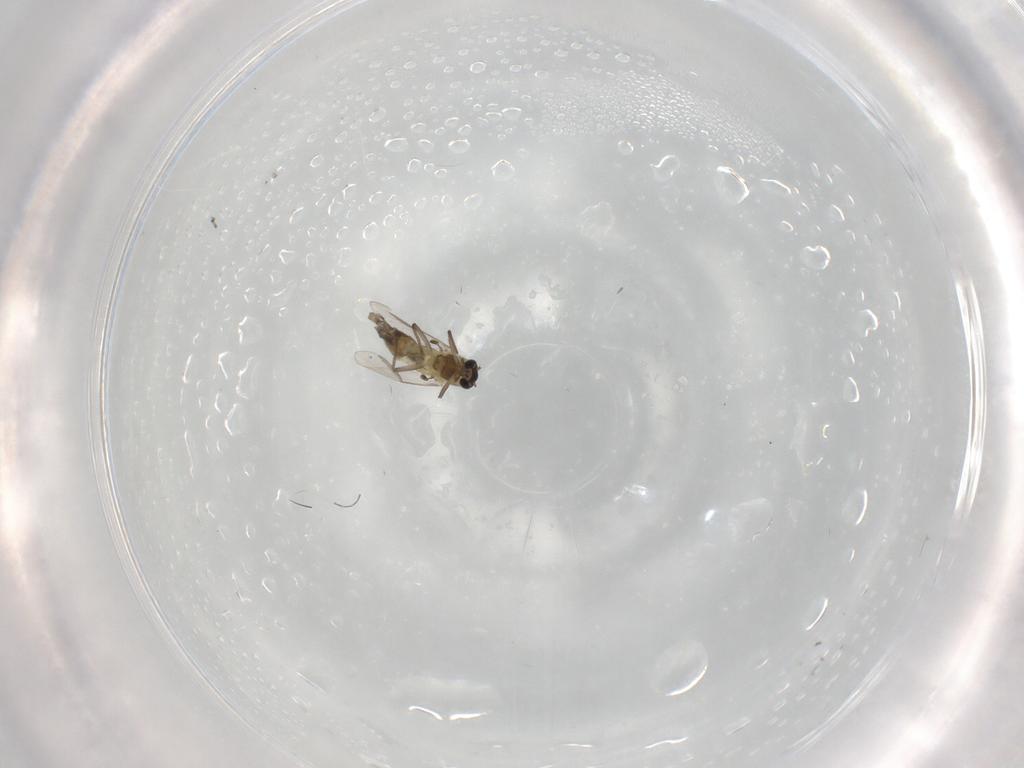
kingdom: Animalia
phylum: Arthropoda
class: Insecta
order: Diptera
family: Chironomidae
